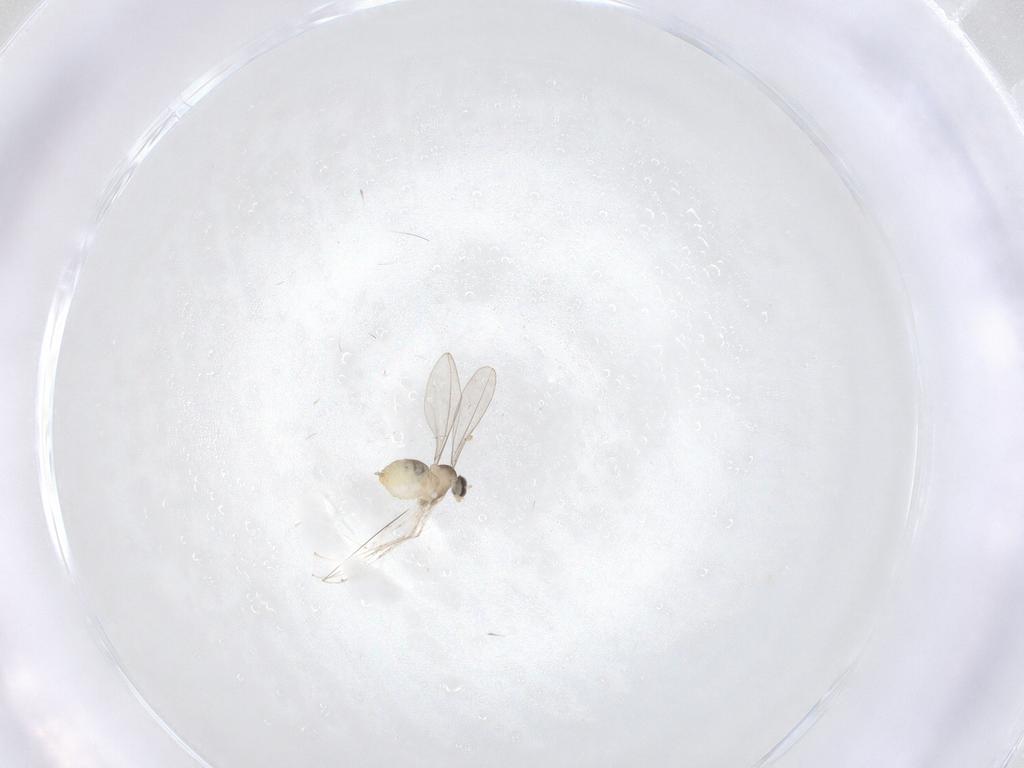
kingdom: Animalia
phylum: Arthropoda
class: Insecta
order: Diptera
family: Cecidomyiidae
